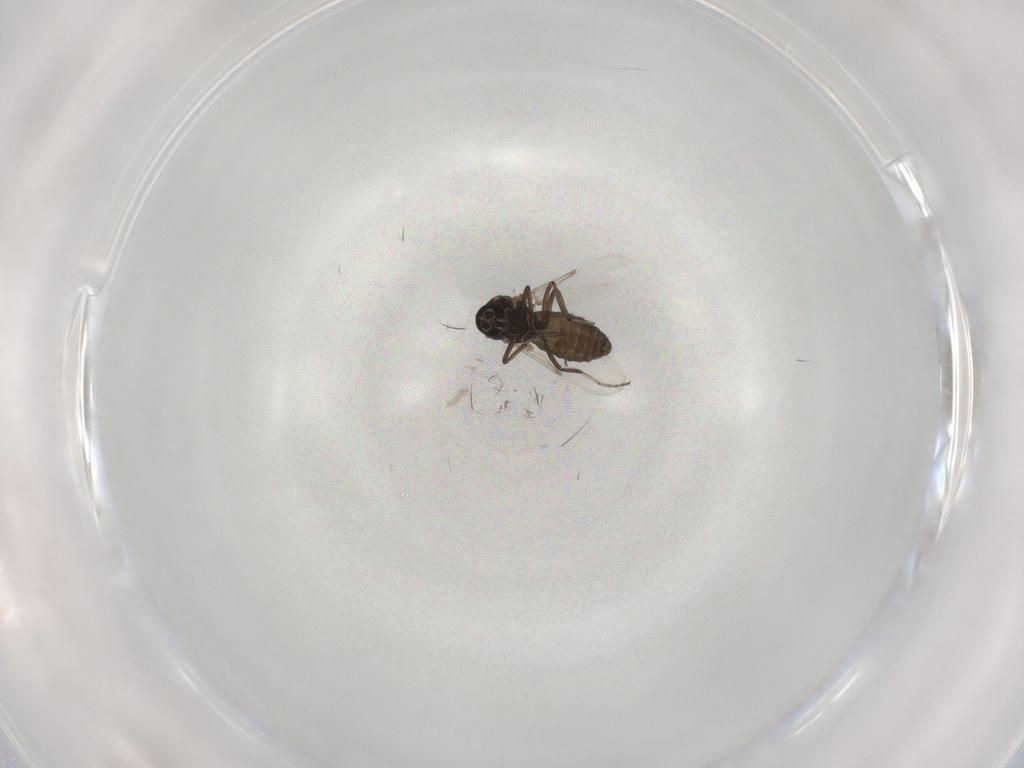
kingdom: Animalia
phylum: Arthropoda
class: Insecta
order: Diptera
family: Ceratopogonidae
